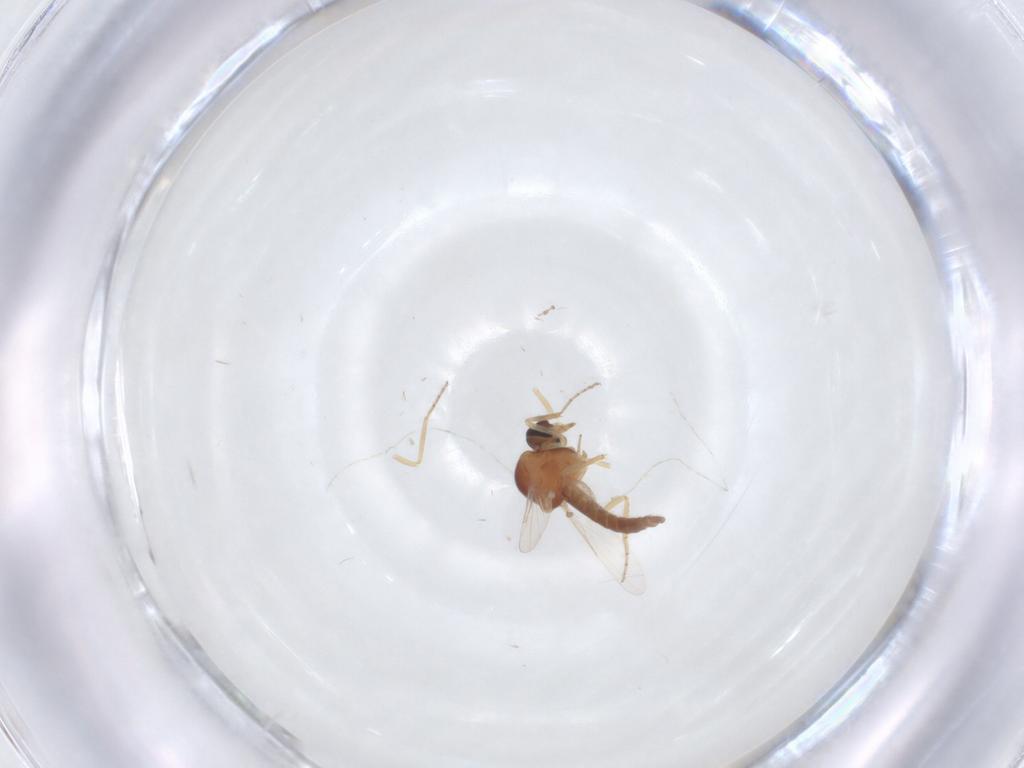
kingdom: Animalia
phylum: Arthropoda
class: Insecta
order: Diptera
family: Ceratopogonidae
